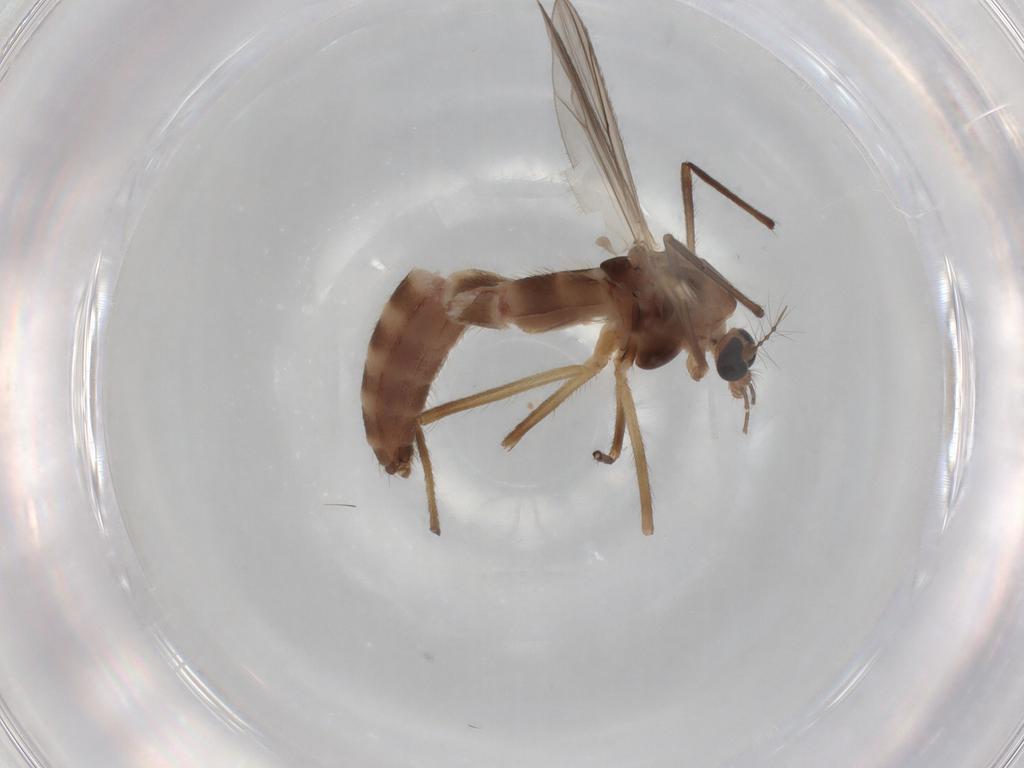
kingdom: Animalia
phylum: Arthropoda
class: Insecta
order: Diptera
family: Chironomidae
